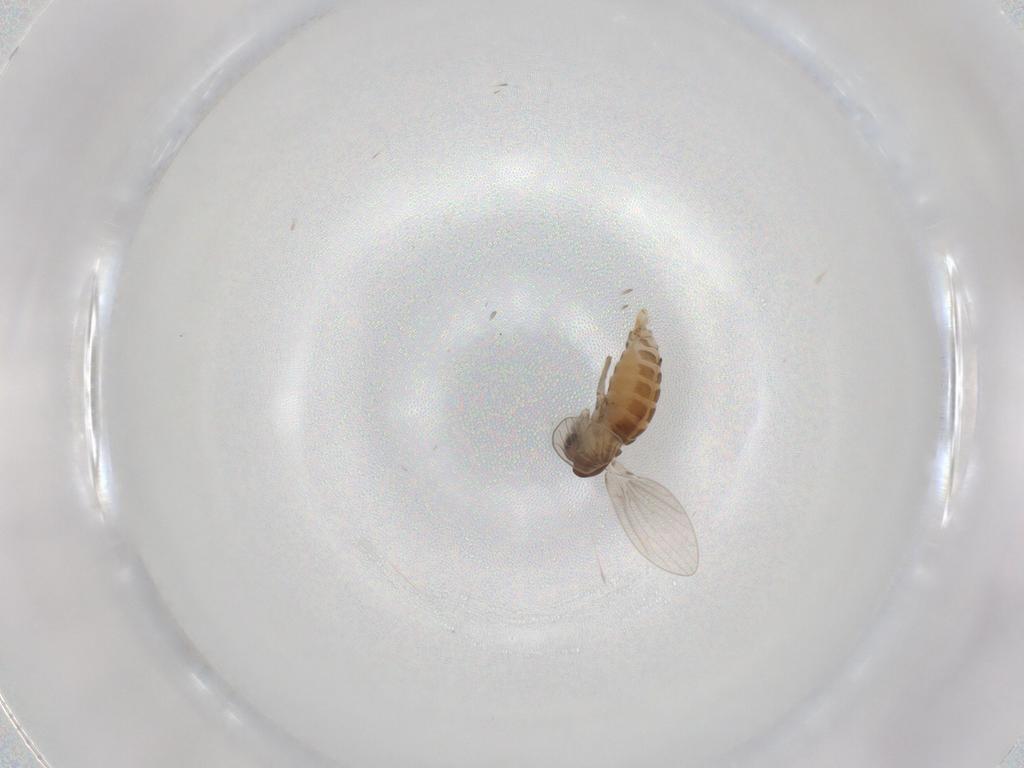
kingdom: Animalia
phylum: Arthropoda
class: Insecta
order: Diptera
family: Psychodidae
